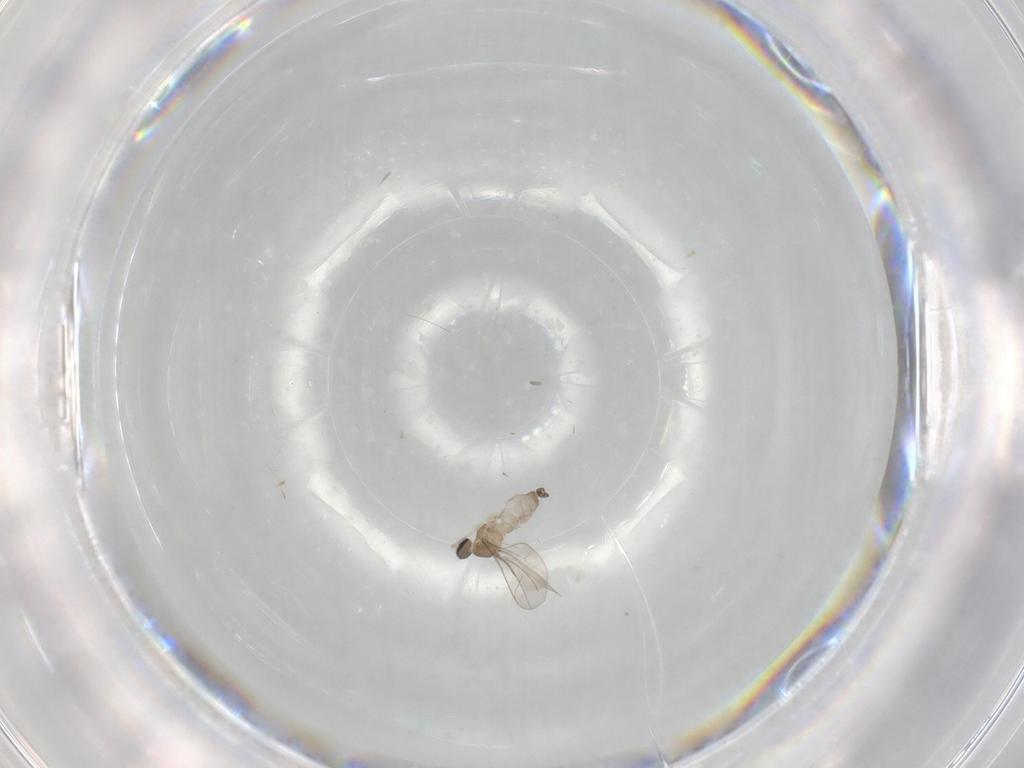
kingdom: Animalia
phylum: Arthropoda
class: Insecta
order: Diptera
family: Chironomidae
